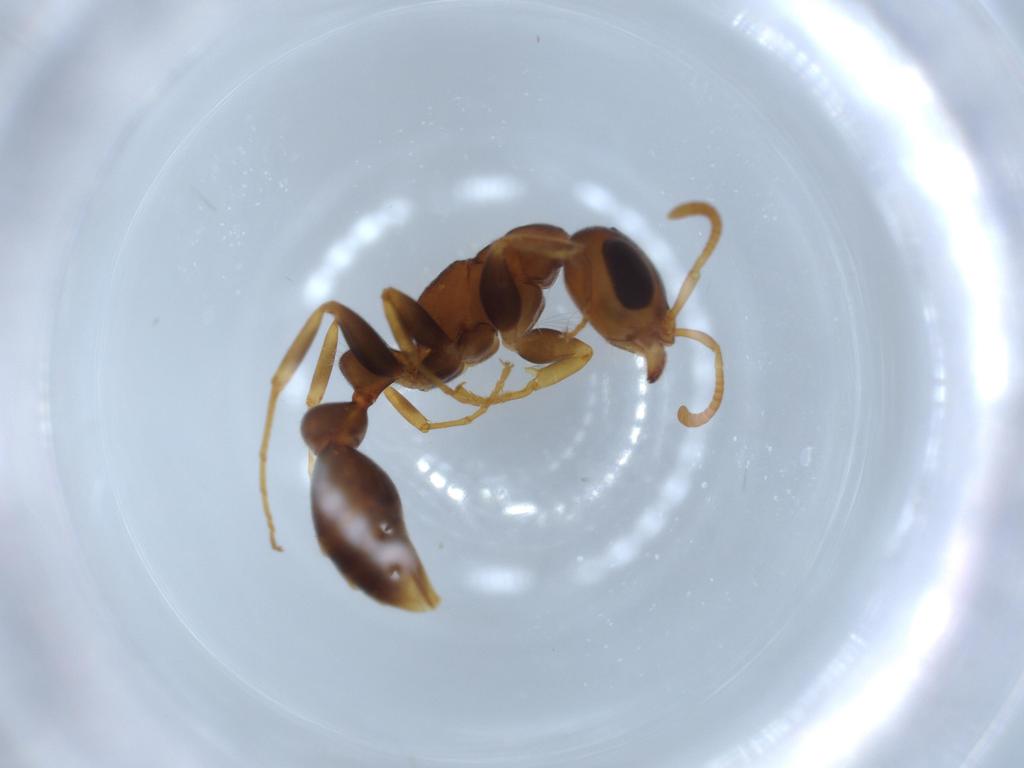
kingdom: Animalia
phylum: Arthropoda
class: Insecta
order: Hymenoptera
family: Formicidae
